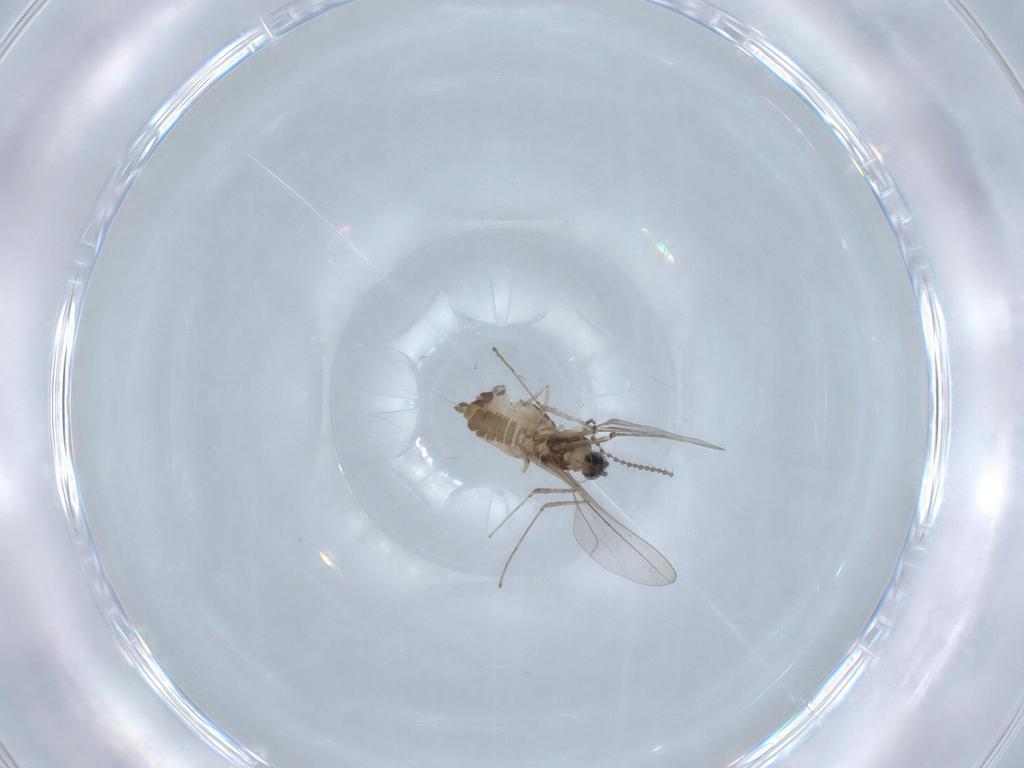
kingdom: Animalia
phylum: Arthropoda
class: Insecta
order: Diptera
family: Cecidomyiidae
